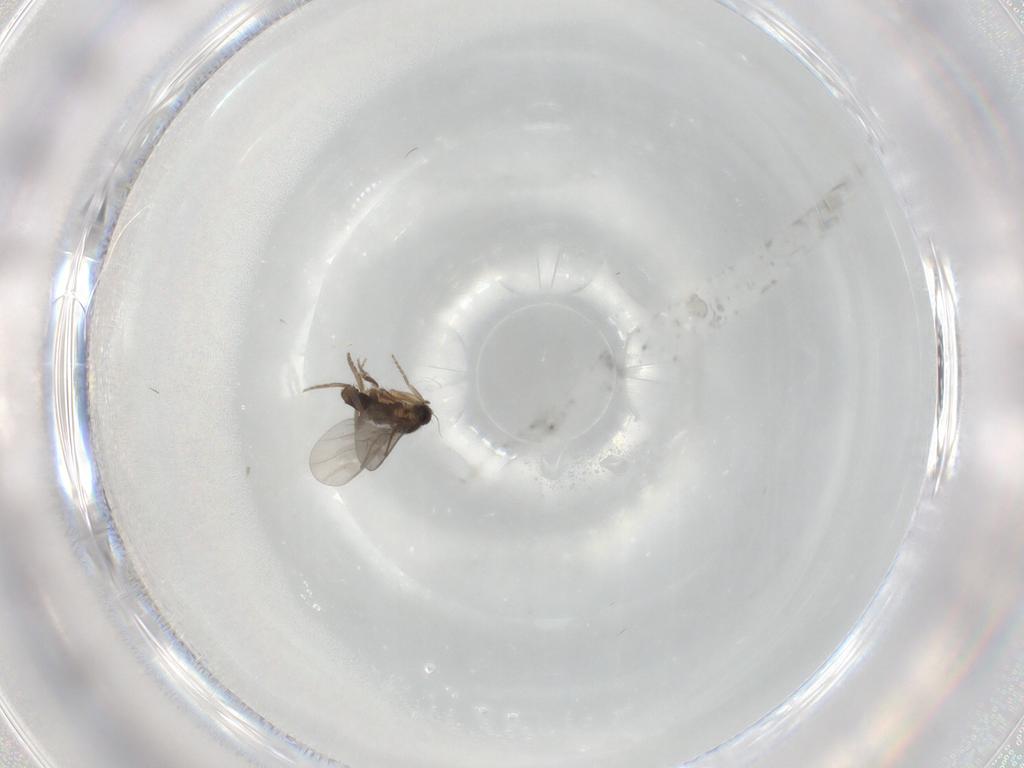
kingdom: Animalia
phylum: Arthropoda
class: Insecta
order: Diptera
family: Chironomidae
